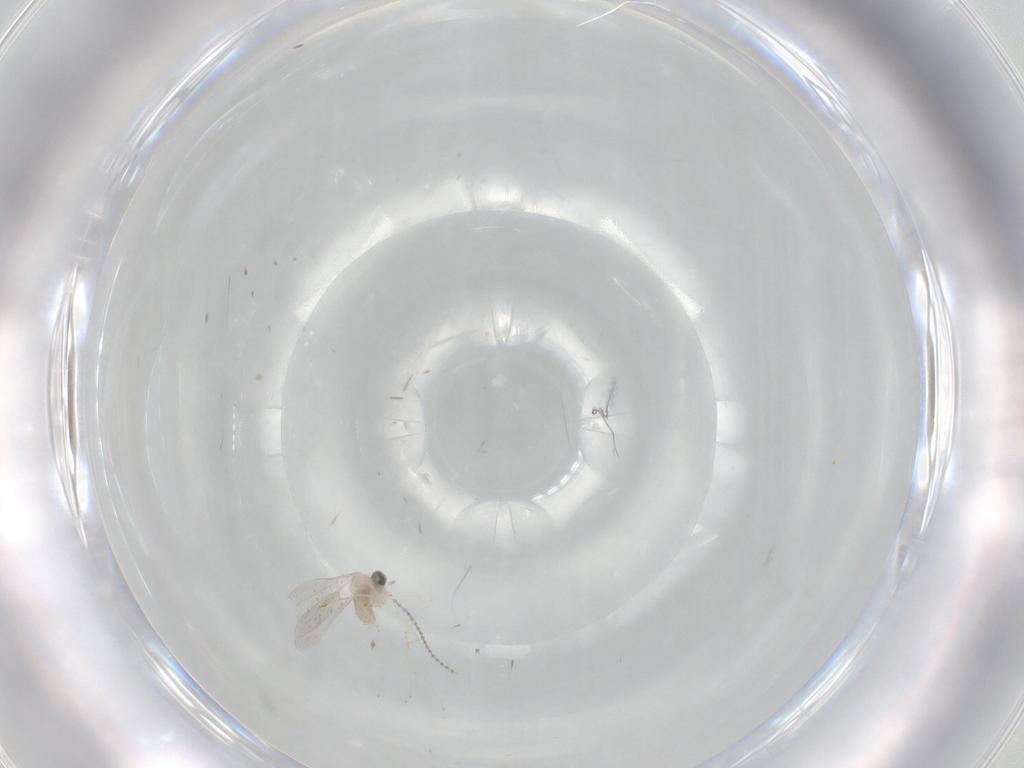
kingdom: Animalia
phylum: Arthropoda
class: Insecta
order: Diptera
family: Cecidomyiidae
